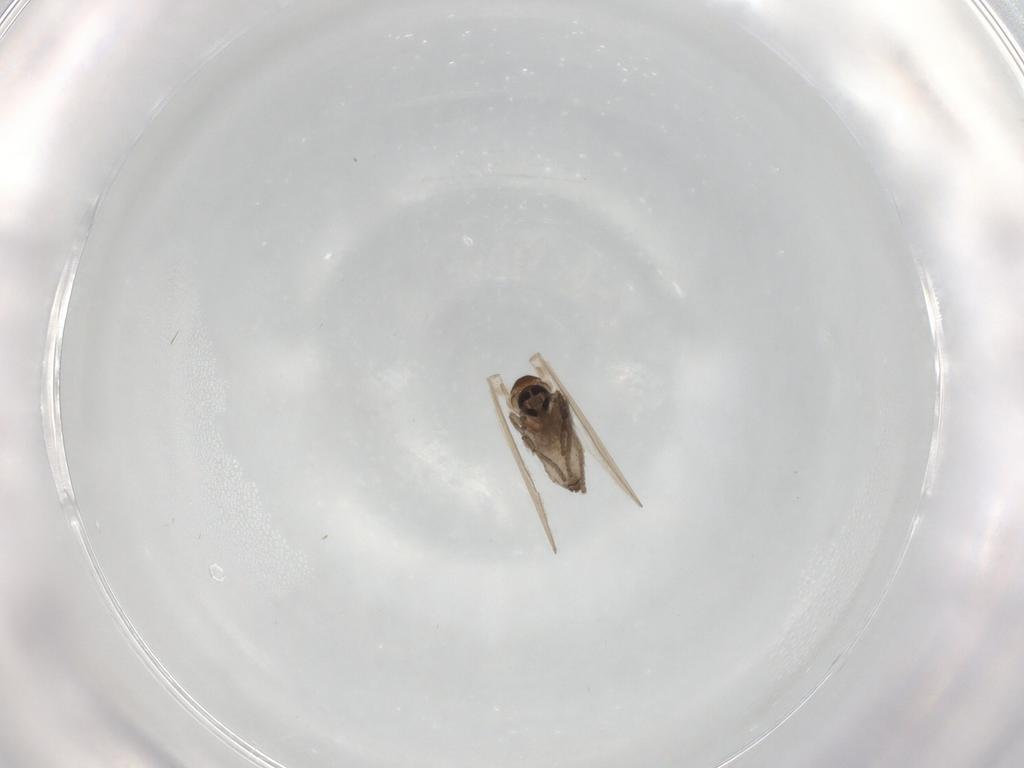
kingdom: Animalia
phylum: Arthropoda
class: Insecta
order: Diptera
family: Psychodidae
